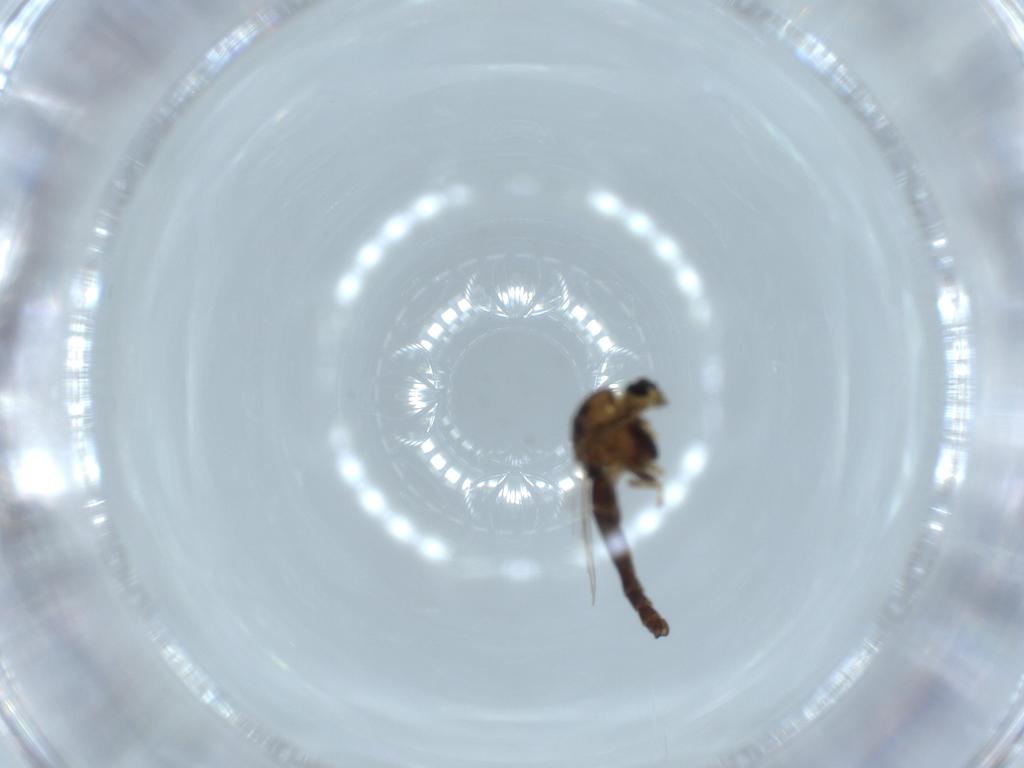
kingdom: Animalia
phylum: Arthropoda
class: Insecta
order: Diptera
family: Chironomidae
